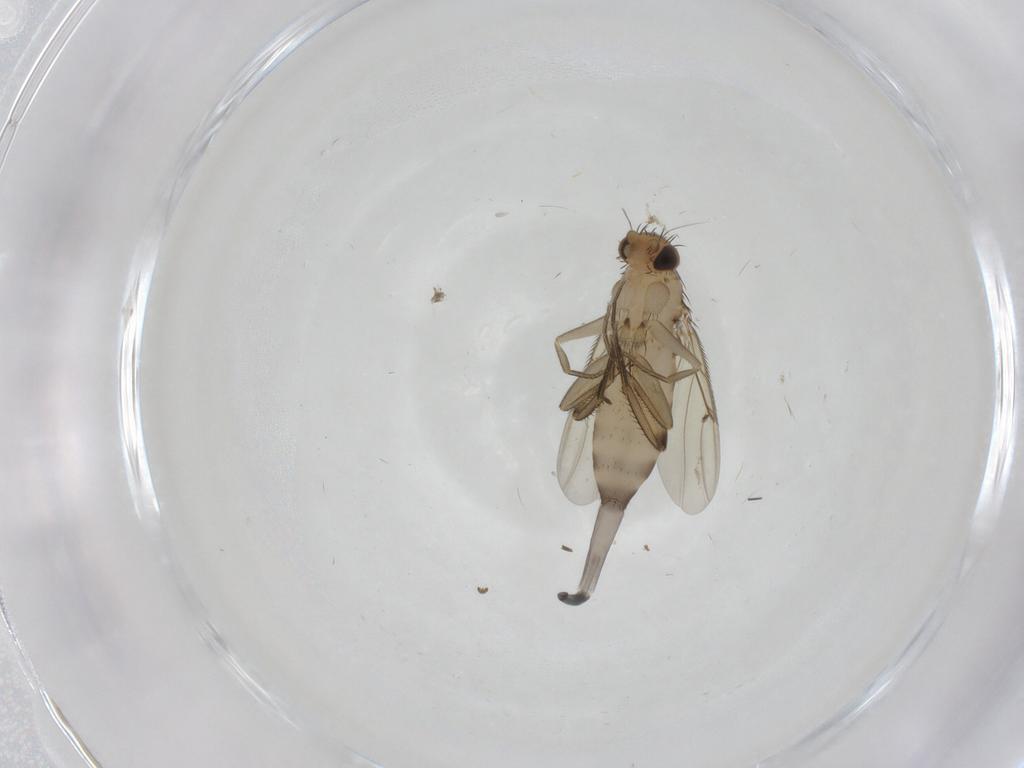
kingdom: Animalia
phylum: Arthropoda
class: Insecta
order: Diptera
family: Phoridae
